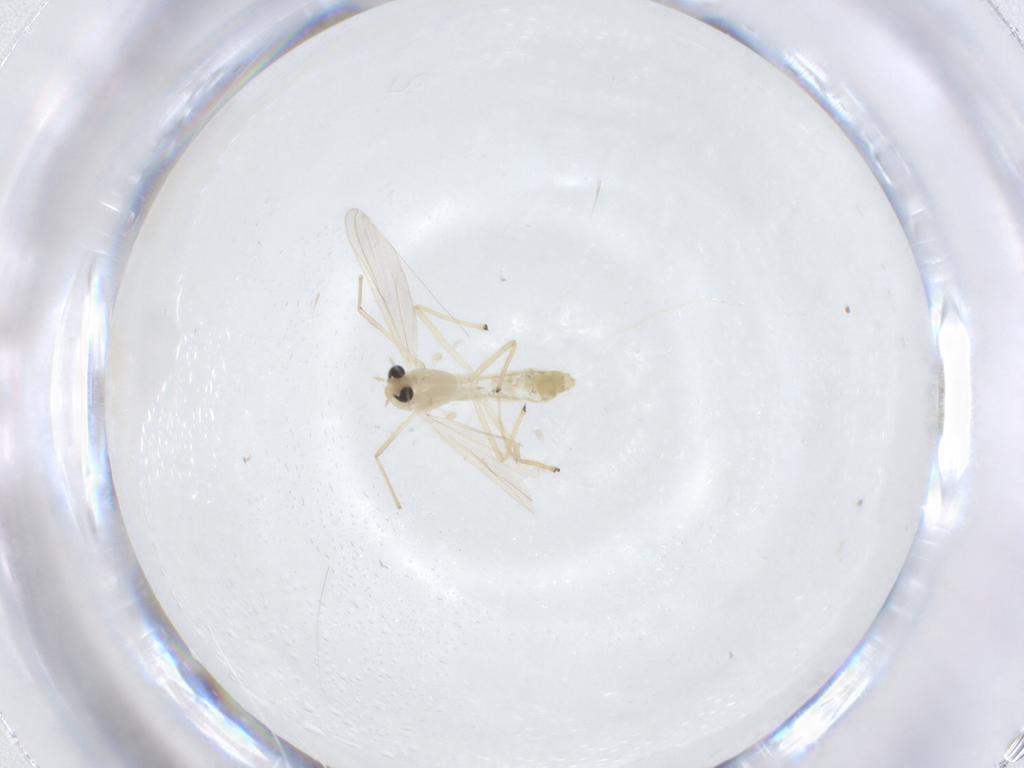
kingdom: Animalia
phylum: Arthropoda
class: Insecta
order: Diptera
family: Chironomidae
